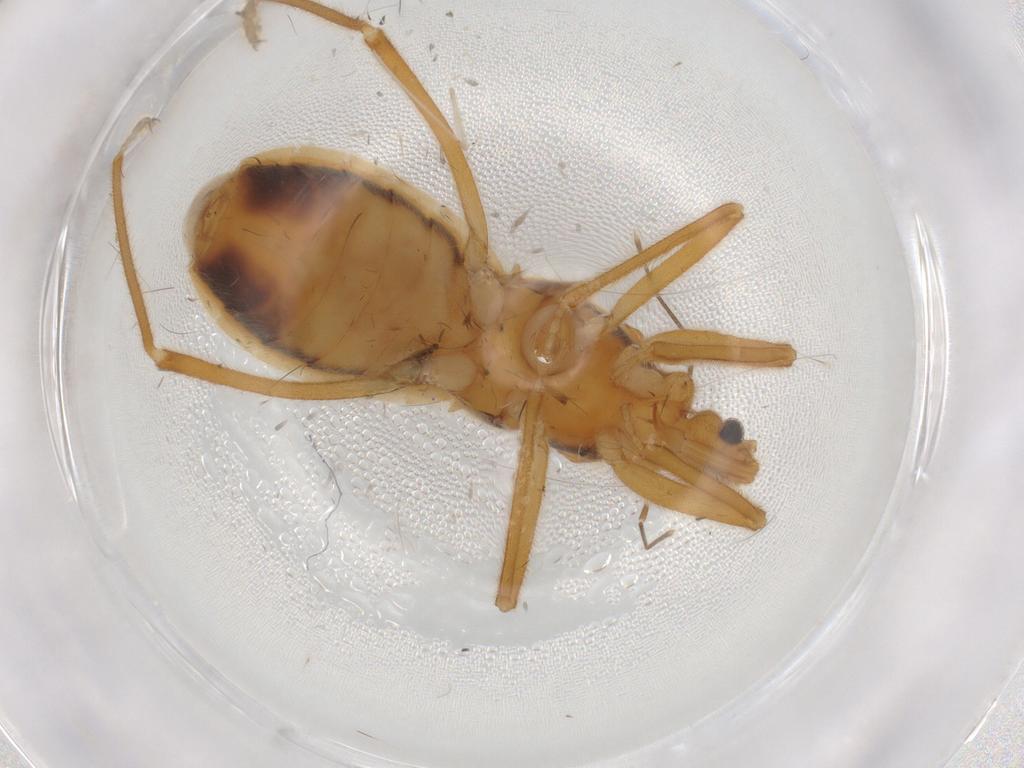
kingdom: Animalia
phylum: Arthropoda
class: Insecta
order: Hemiptera
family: Cicadellidae
